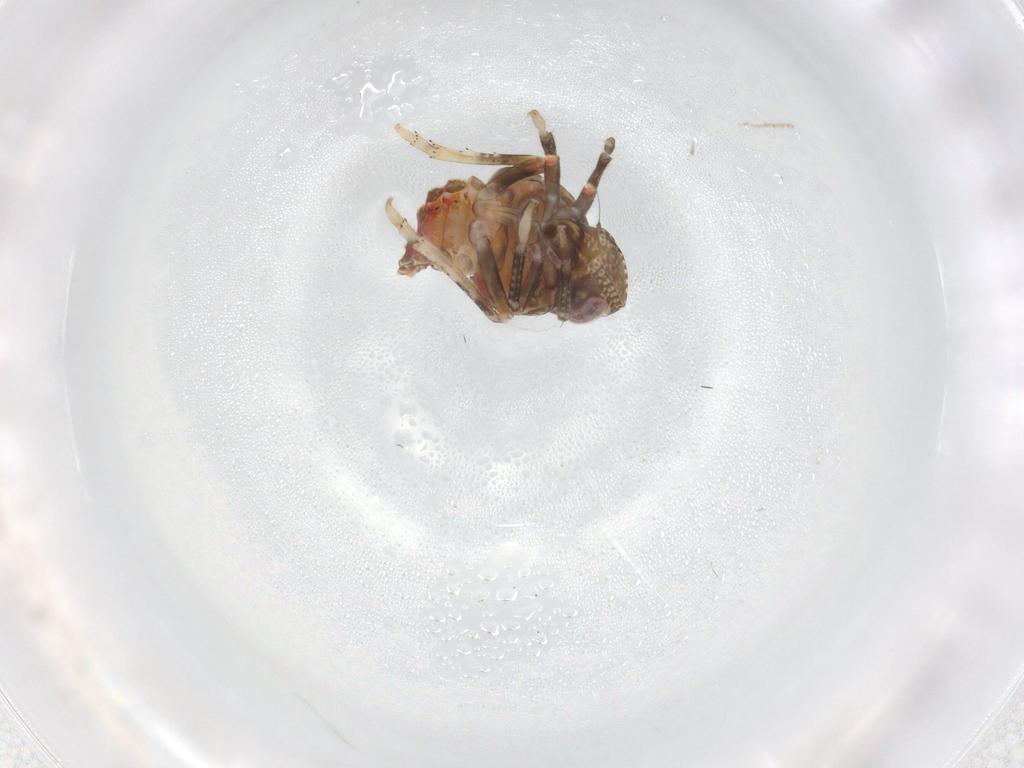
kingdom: Animalia
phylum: Arthropoda
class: Insecta
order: Hemiptera
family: Tropiduchidae
